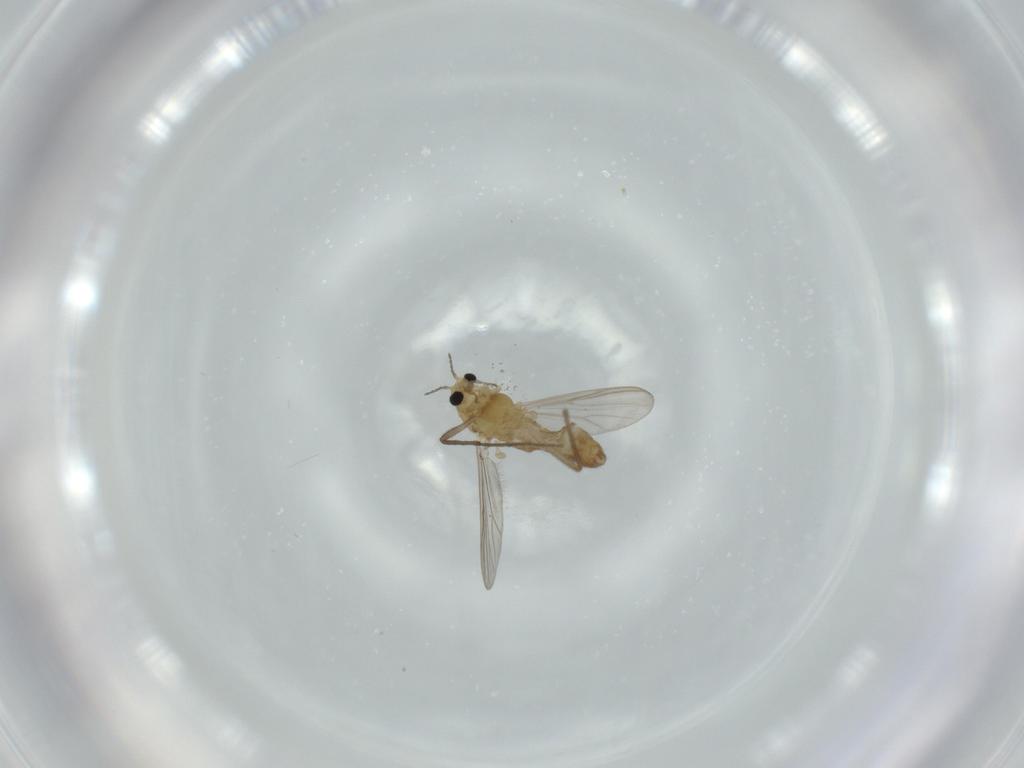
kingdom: Animalia
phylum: Arthropoda
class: Insecta
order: Diptera
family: Chironomidae
